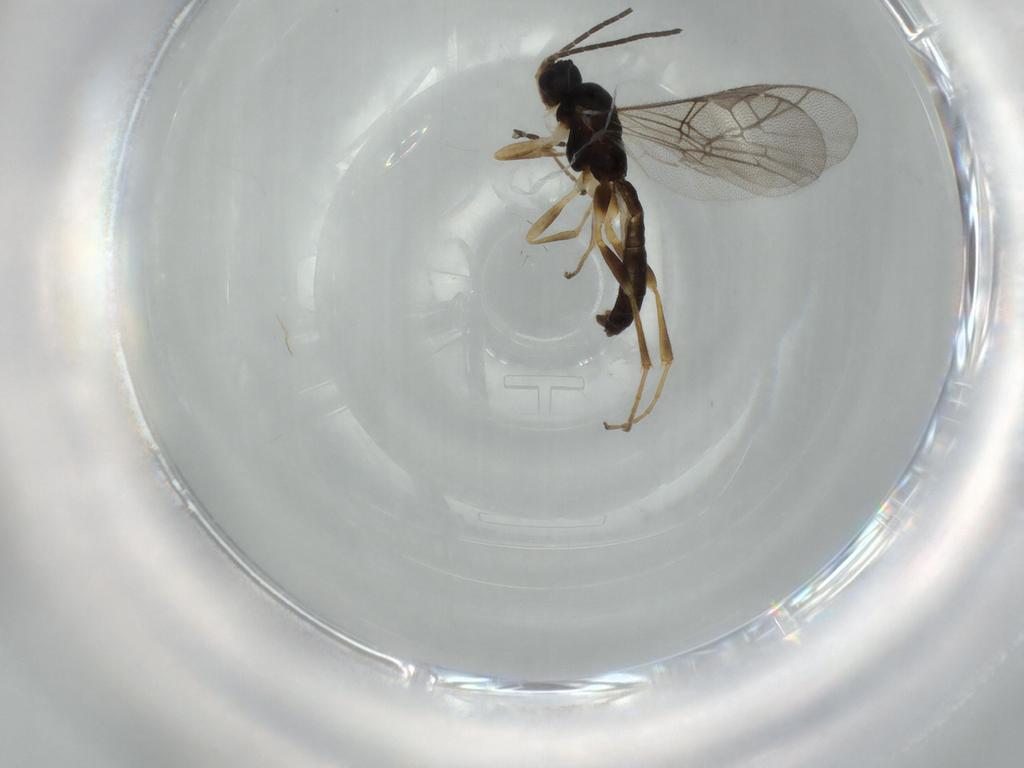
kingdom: Animalia
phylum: Arthropoda
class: Insecta
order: Hymenoptera
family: Ichneumonidae
